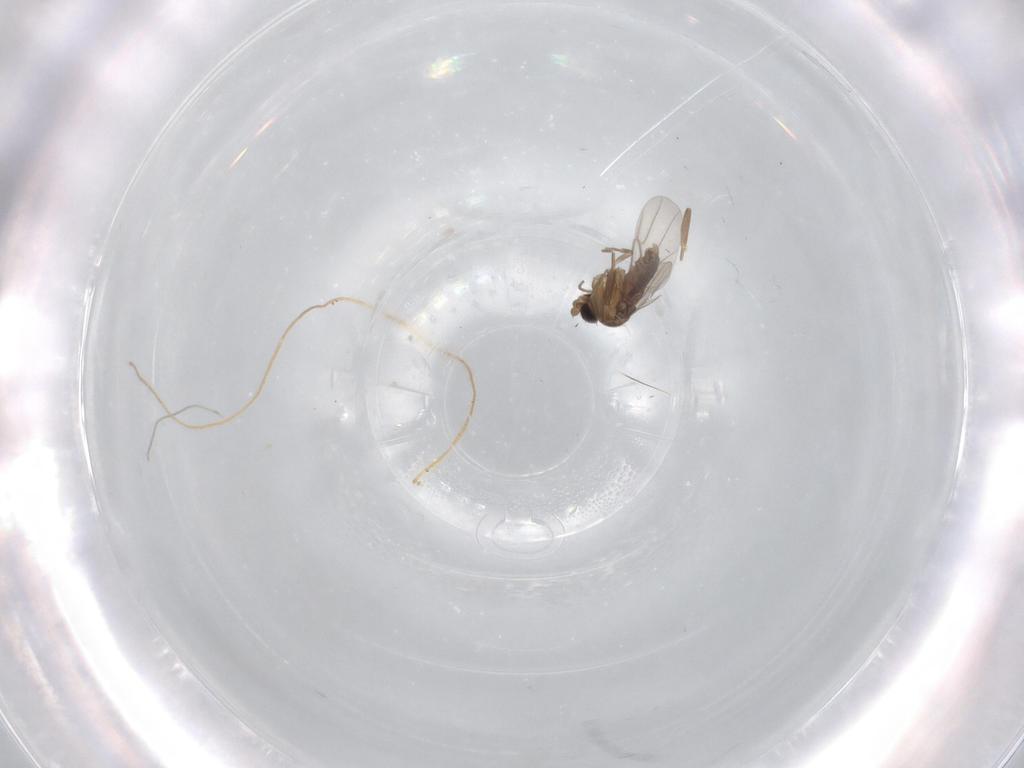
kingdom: Animalia
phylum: Arthropoda
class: Insecta
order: Diptera
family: Phoridae
